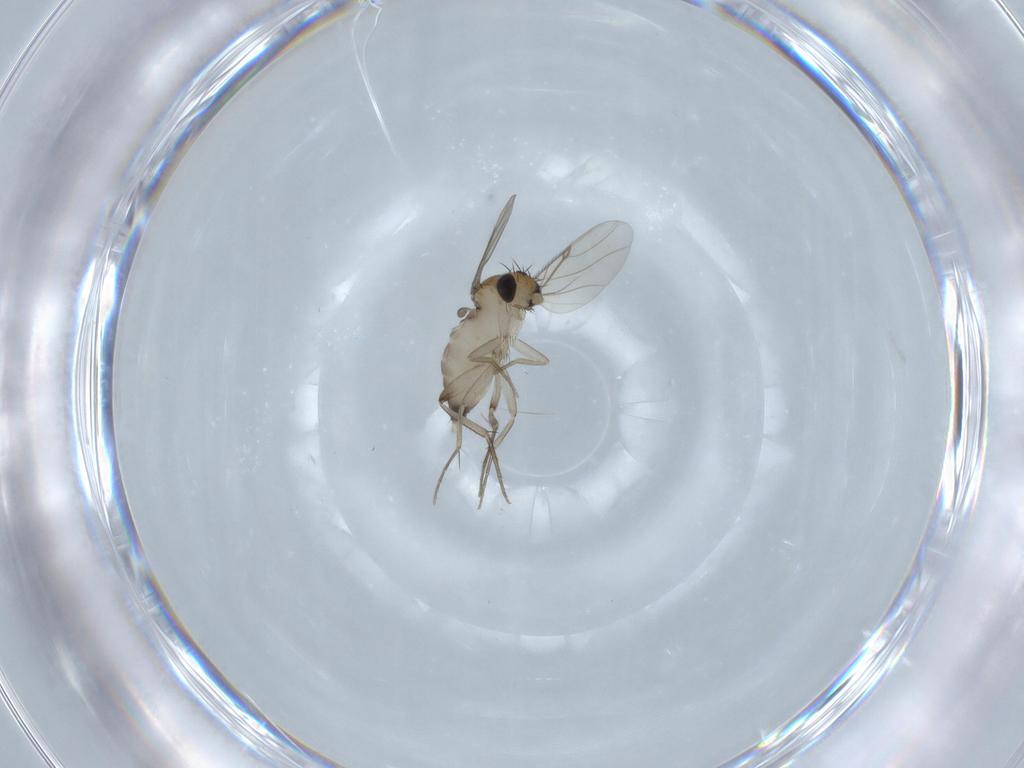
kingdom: Animalia
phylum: Arthropoda
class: Insecta
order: Diptera
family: Phoridae
